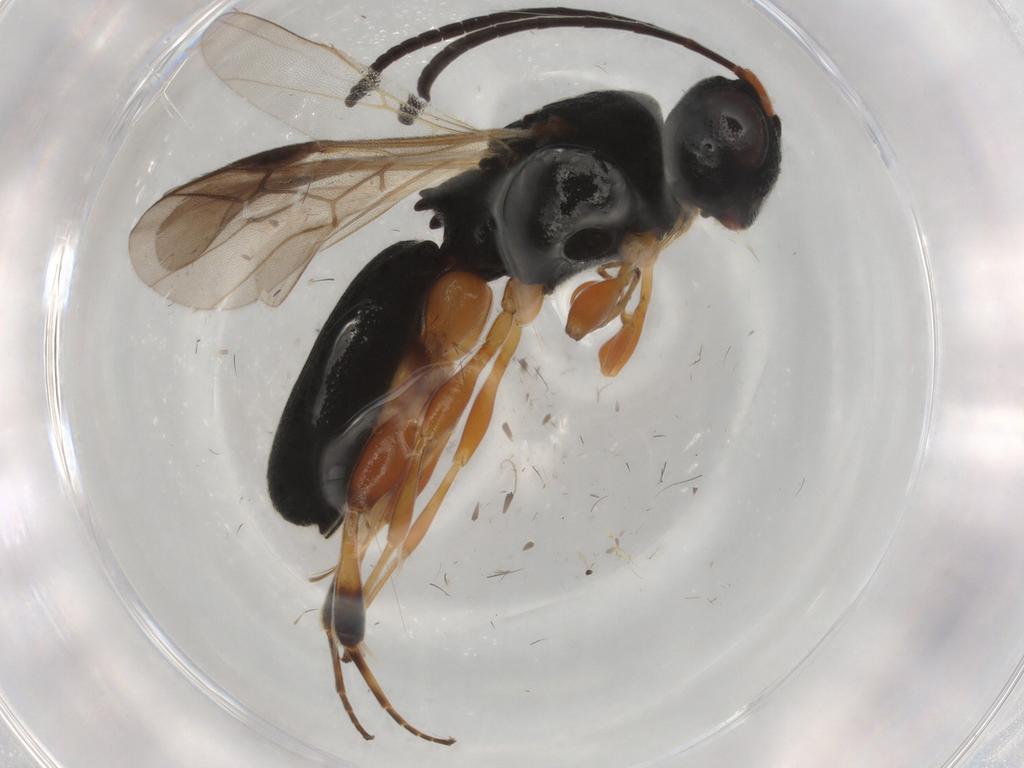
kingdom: Animalia
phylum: Arthropoda
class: Insecta
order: Hymenoptera
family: Braconidae
